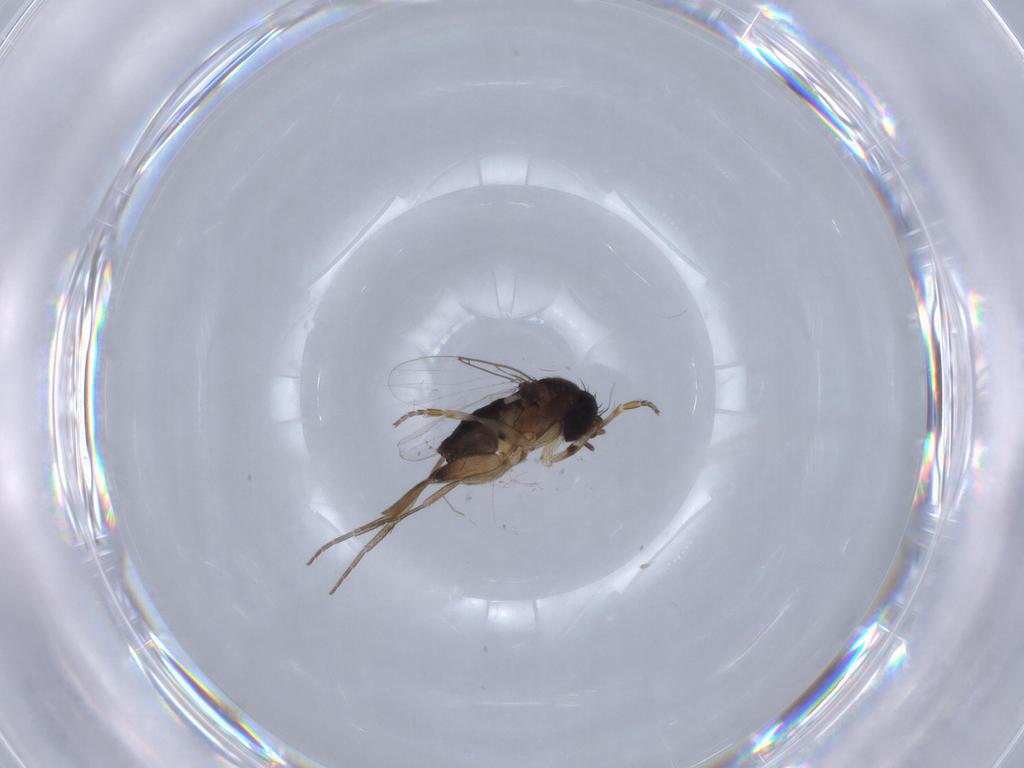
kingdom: Animalia
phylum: Arthropoda
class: Insecta
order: Diptera
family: Phoridae
